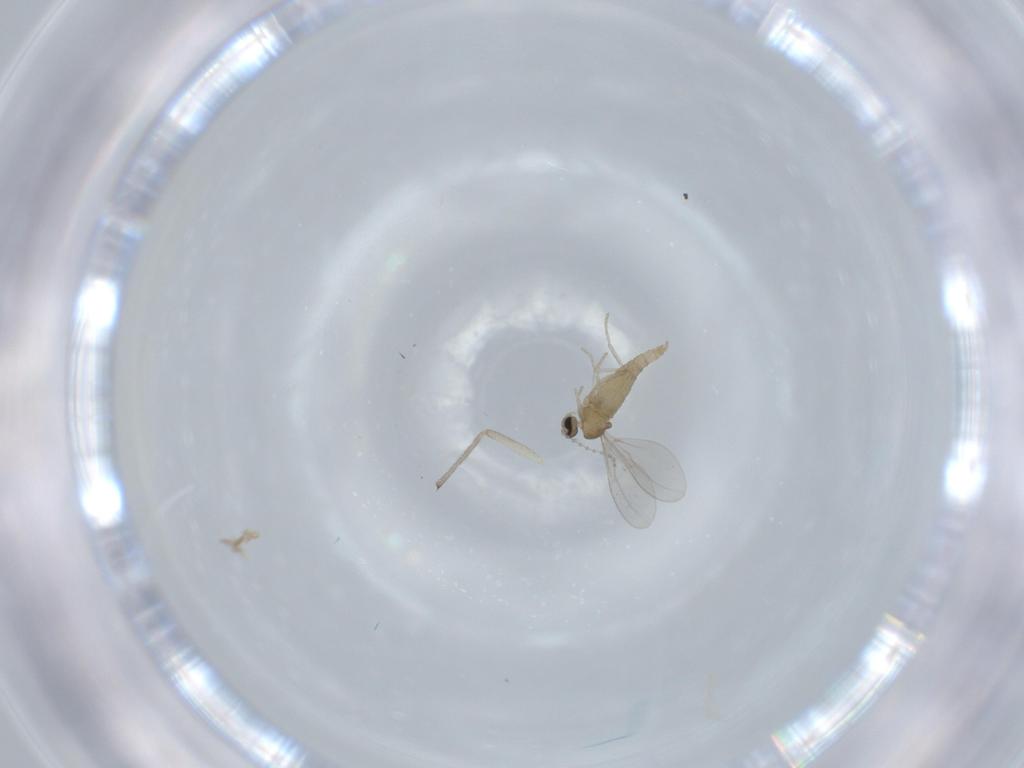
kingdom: Animalia
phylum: Arthropoda
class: Insecta
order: Diptera
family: Cecidomyiidae
